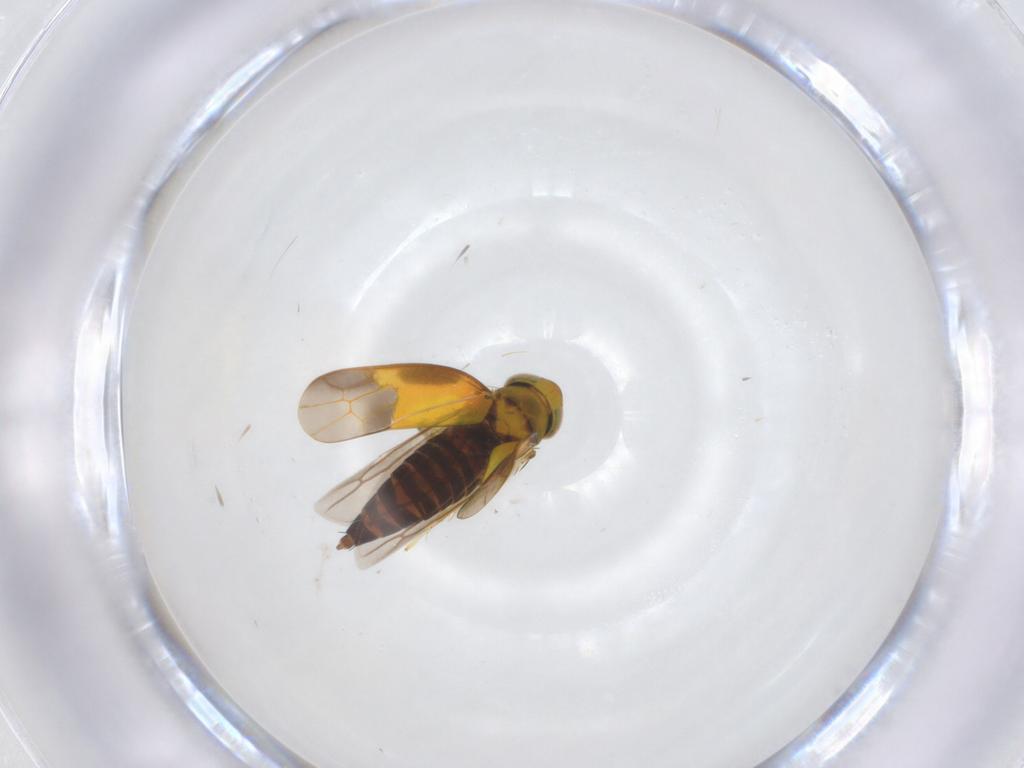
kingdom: Animalia
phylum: Arthropoda
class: Insecta
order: Hemiptera
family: Cicadellidae
